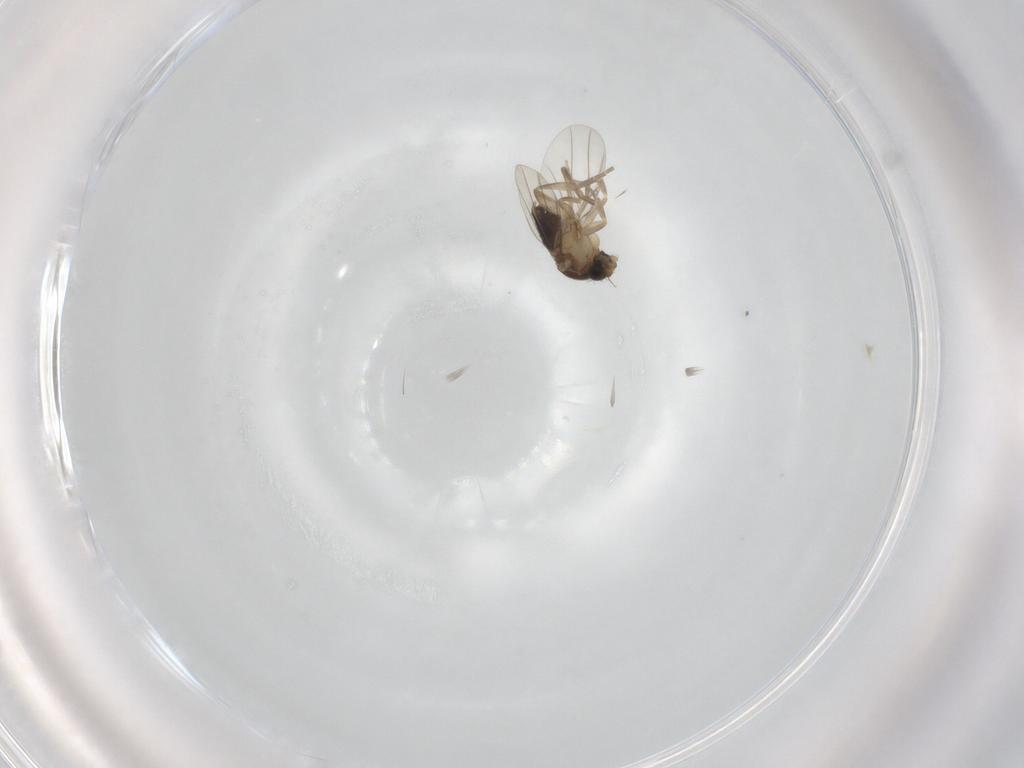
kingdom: Animalia
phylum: Arthropoda
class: Insecta
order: Diptera
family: Phoridae
